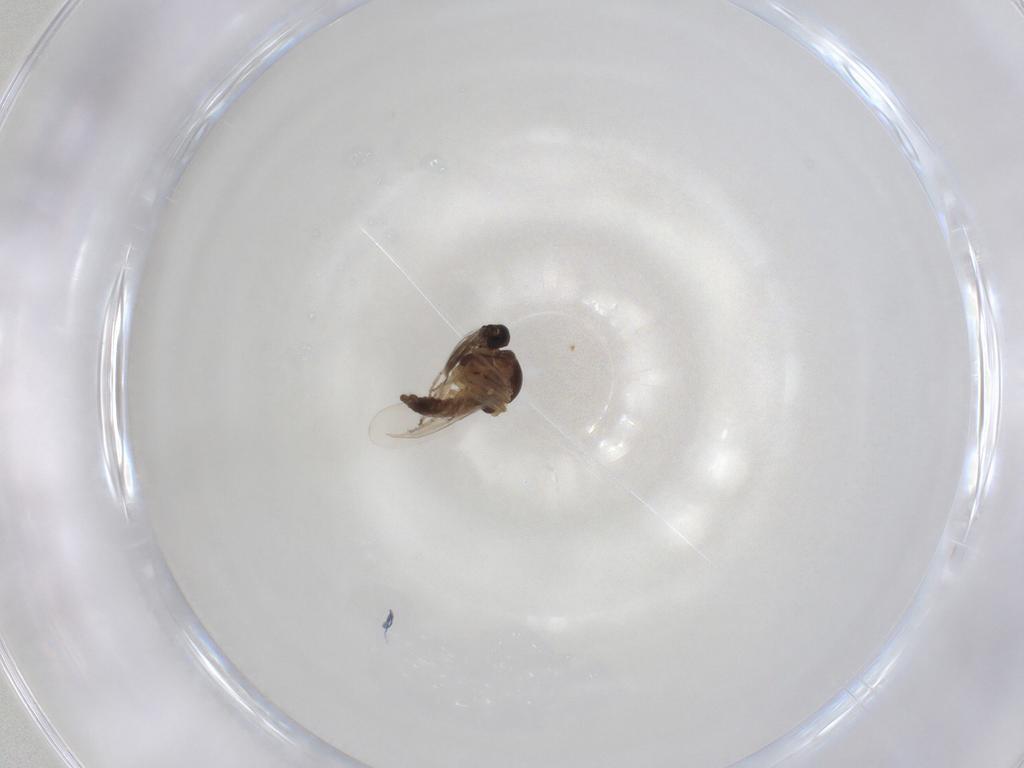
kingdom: Animalia
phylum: Arthropoda
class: Insecta
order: Diptera
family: Ceratopogonidae
